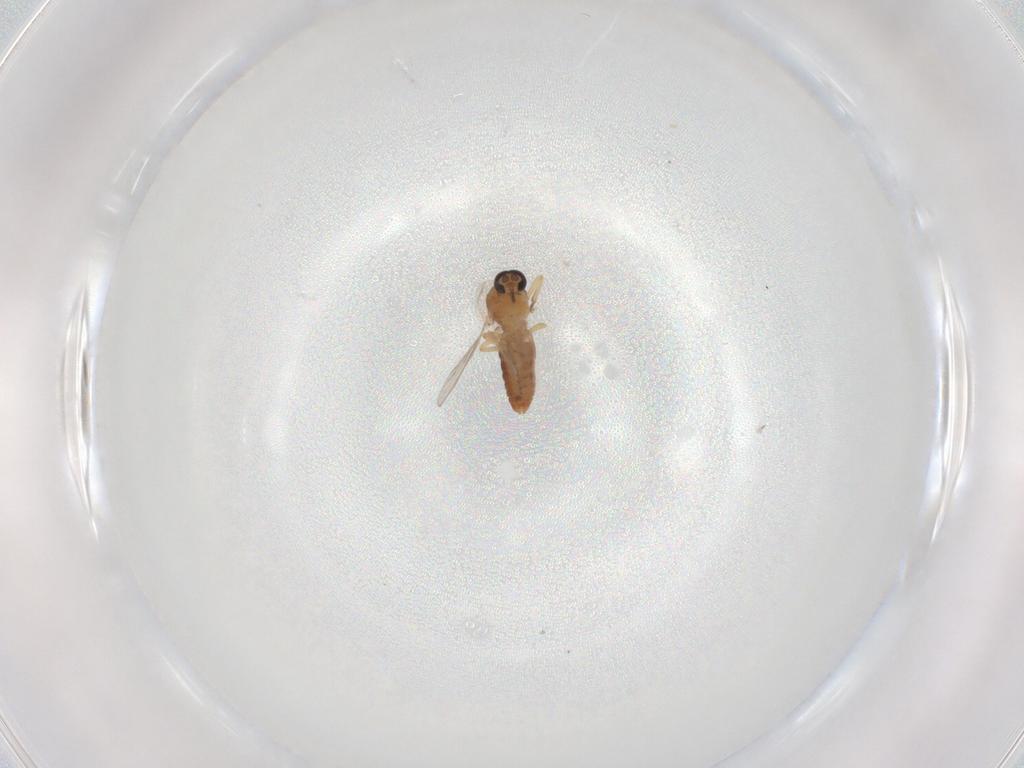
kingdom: Animalia
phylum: Arthropoda
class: Insecta
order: Diptera
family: Ceratopogonidae
